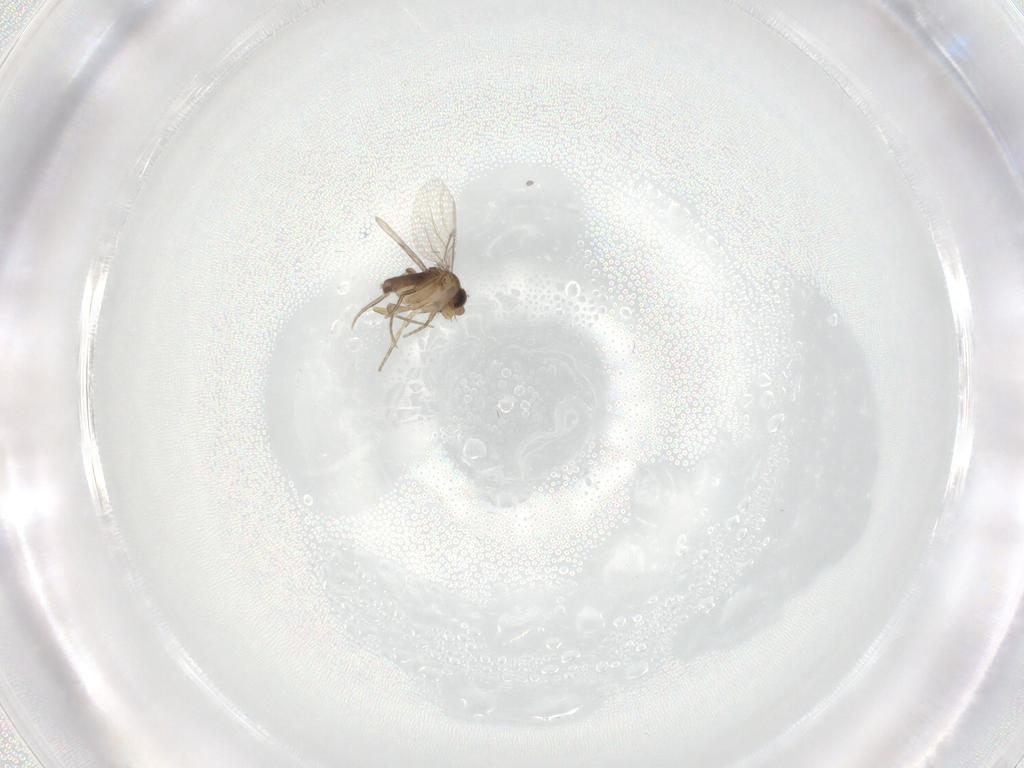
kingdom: Animalia
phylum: Arthropoda
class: Insecta
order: Diptera
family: Phoridae
